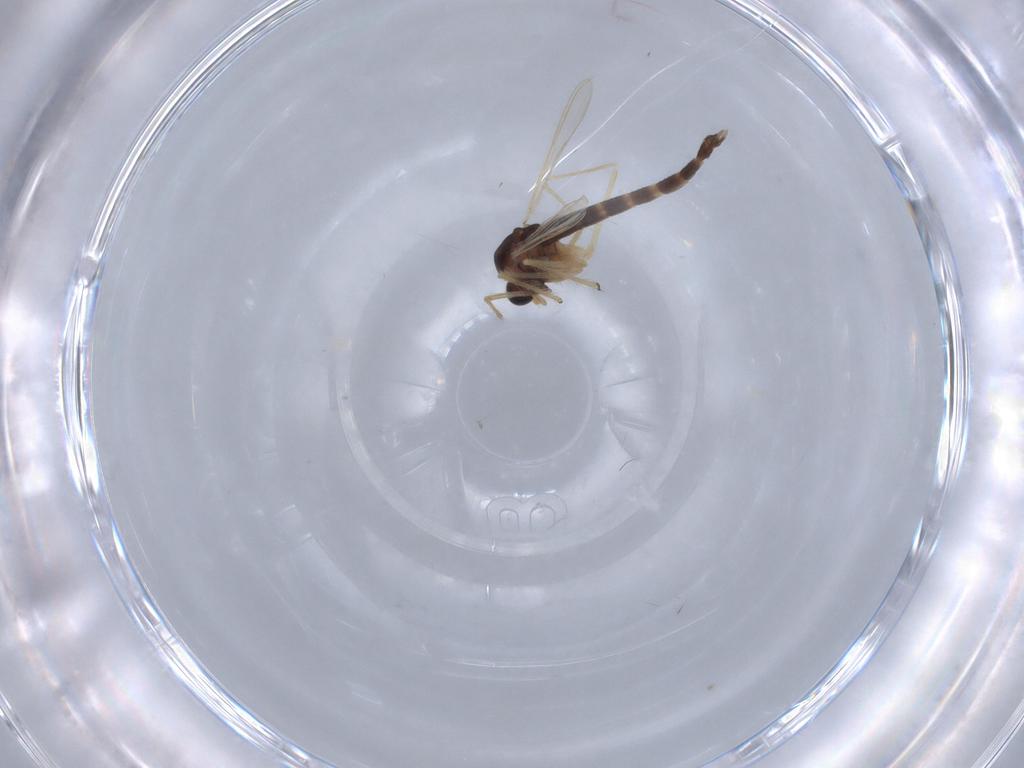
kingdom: Animalia
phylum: Arthropoda
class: Insecta
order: Diptera
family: Chironomidae
